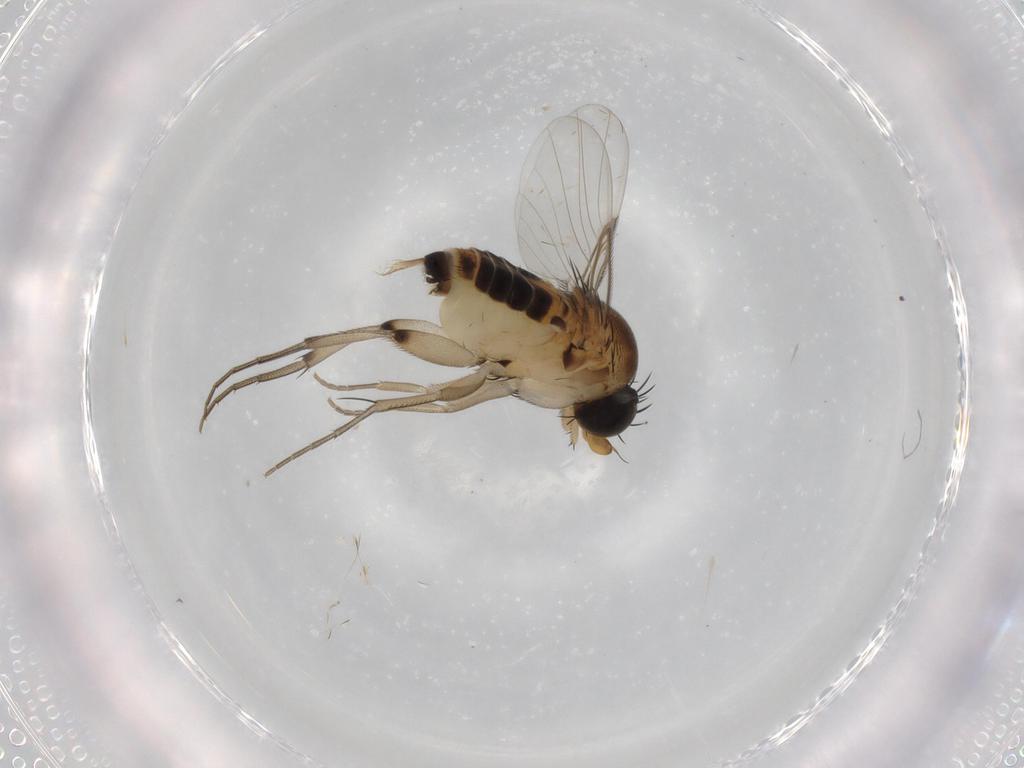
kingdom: Animalia
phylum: Arthropoda
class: Insecta
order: Diptera
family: Phoridae
